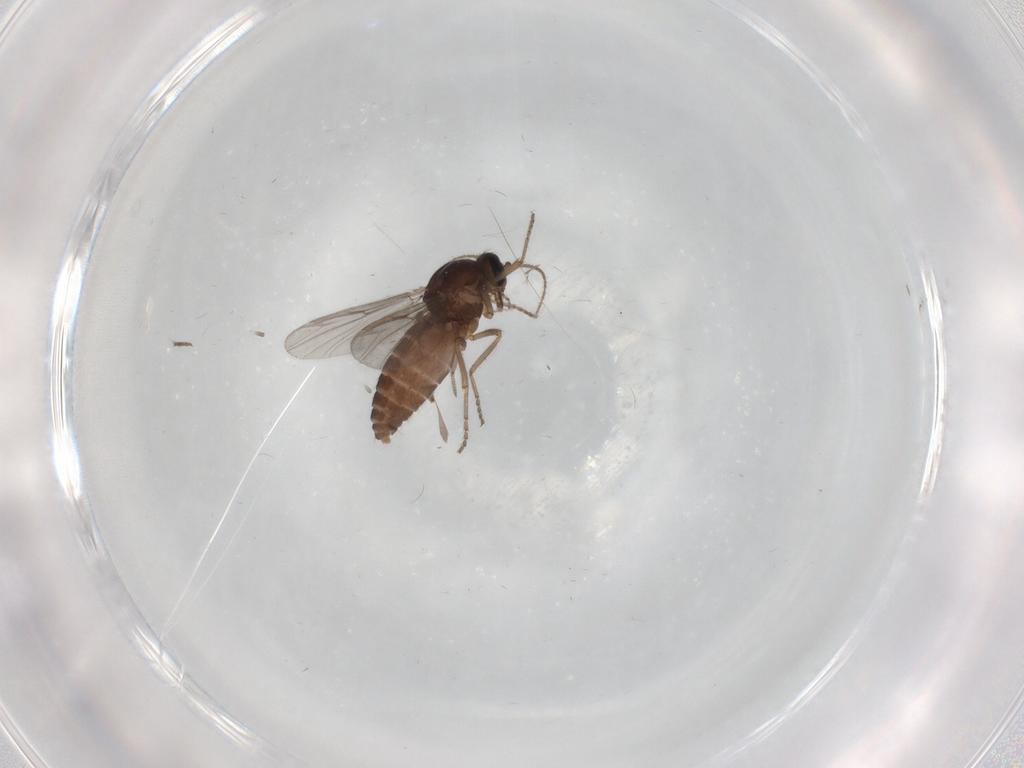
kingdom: Animalia
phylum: Arthropoda
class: Insecta
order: Diptera
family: Ceratopogonidae
